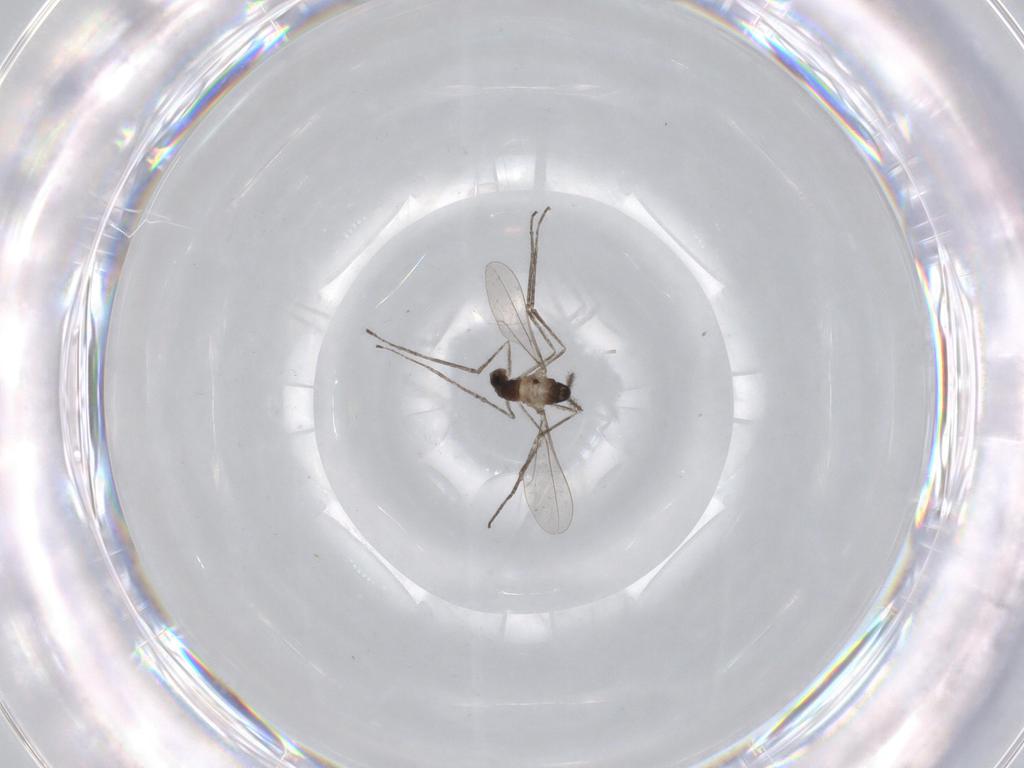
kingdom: Animalia
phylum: Arthropoda
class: Insecta
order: Diptera
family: Cecidomyiidae
